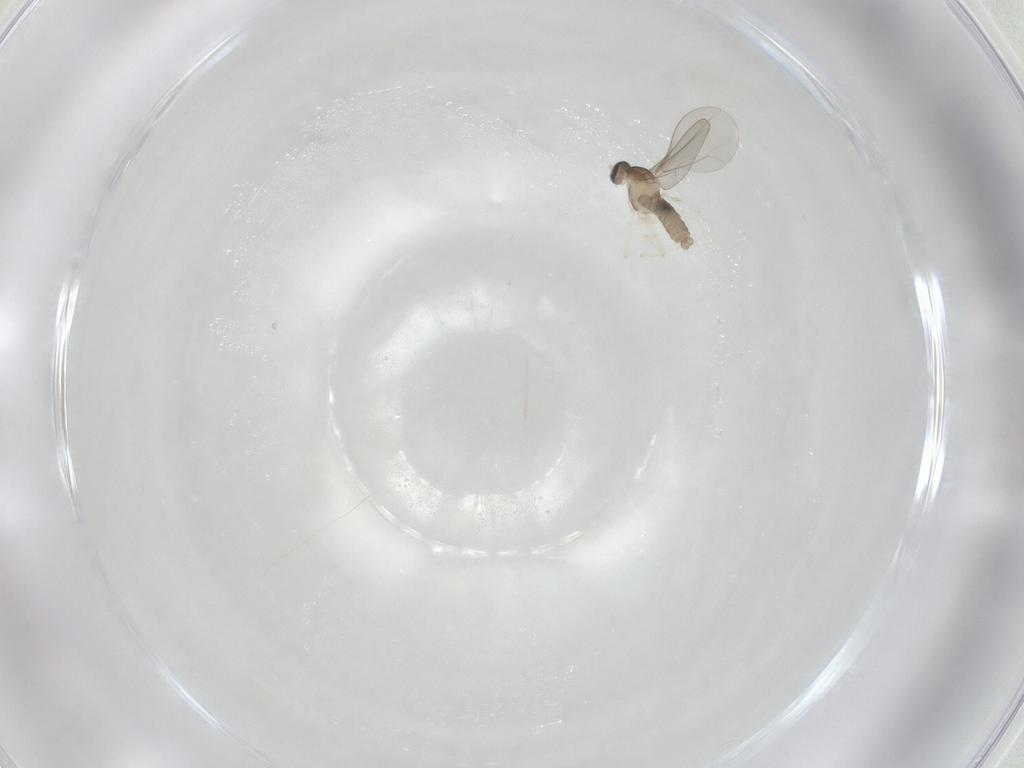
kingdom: Animalia
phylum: Arthropoda
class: Insecta
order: Diptera
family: Cecidomyiidae
